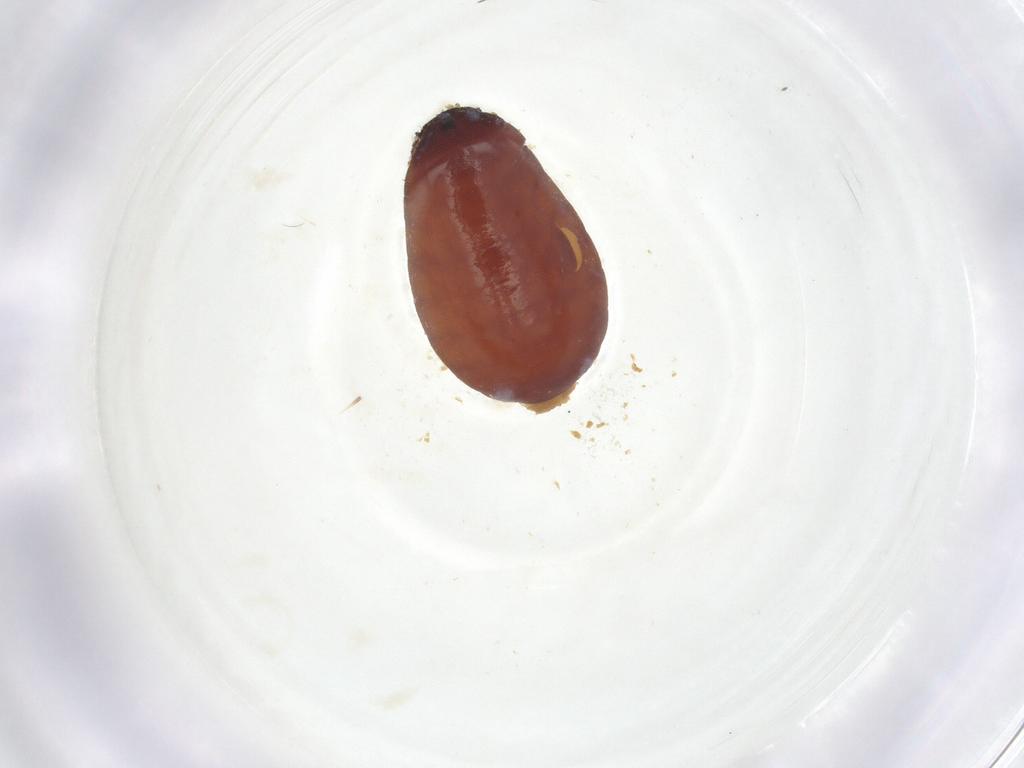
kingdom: Animalia
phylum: Arthropoda
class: Insecta
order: Diptera
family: Fergusoninidae
